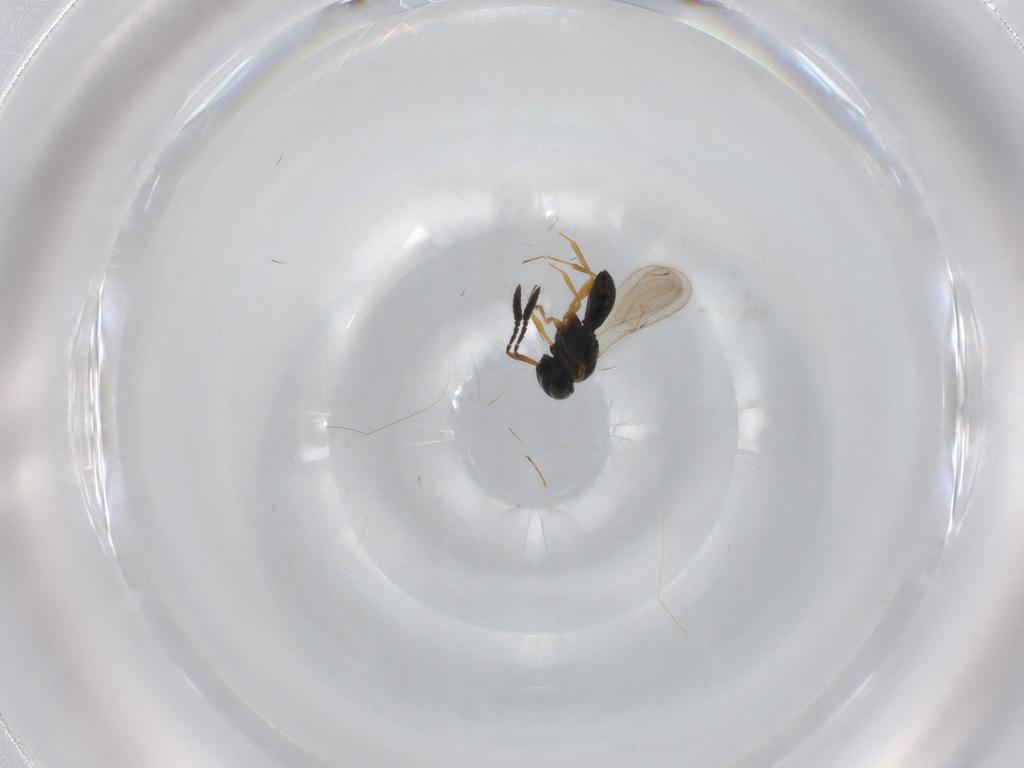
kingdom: Animalia
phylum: Arthropoda
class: Insecta
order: Hymenoptera
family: Scelionidae
